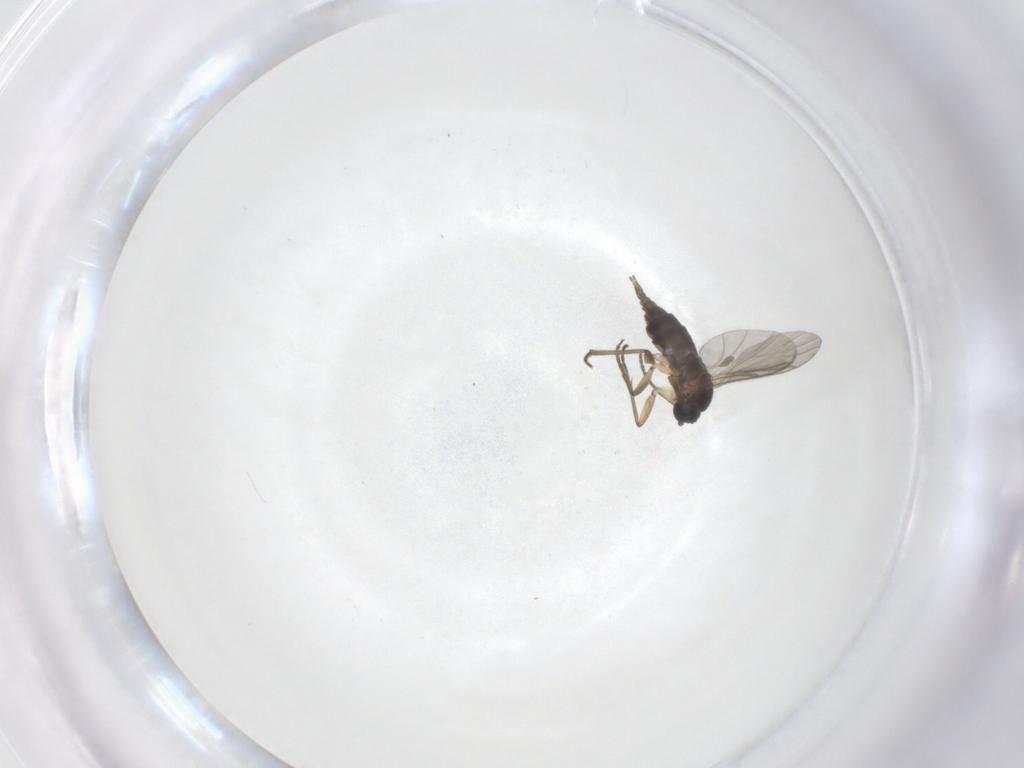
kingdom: Animalia
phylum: Arthropoda
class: Insecta
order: Diptera
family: Sciaridae
